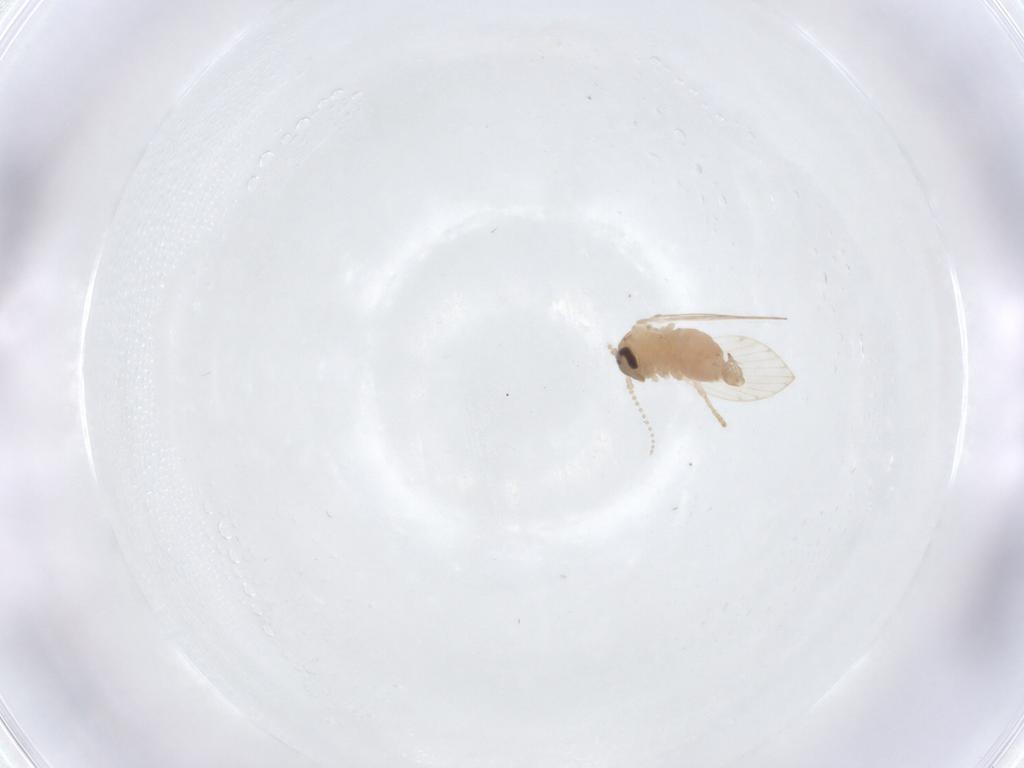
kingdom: Animalia
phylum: Arthropoda
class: Insecta
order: Diptera
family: Psychodidae
